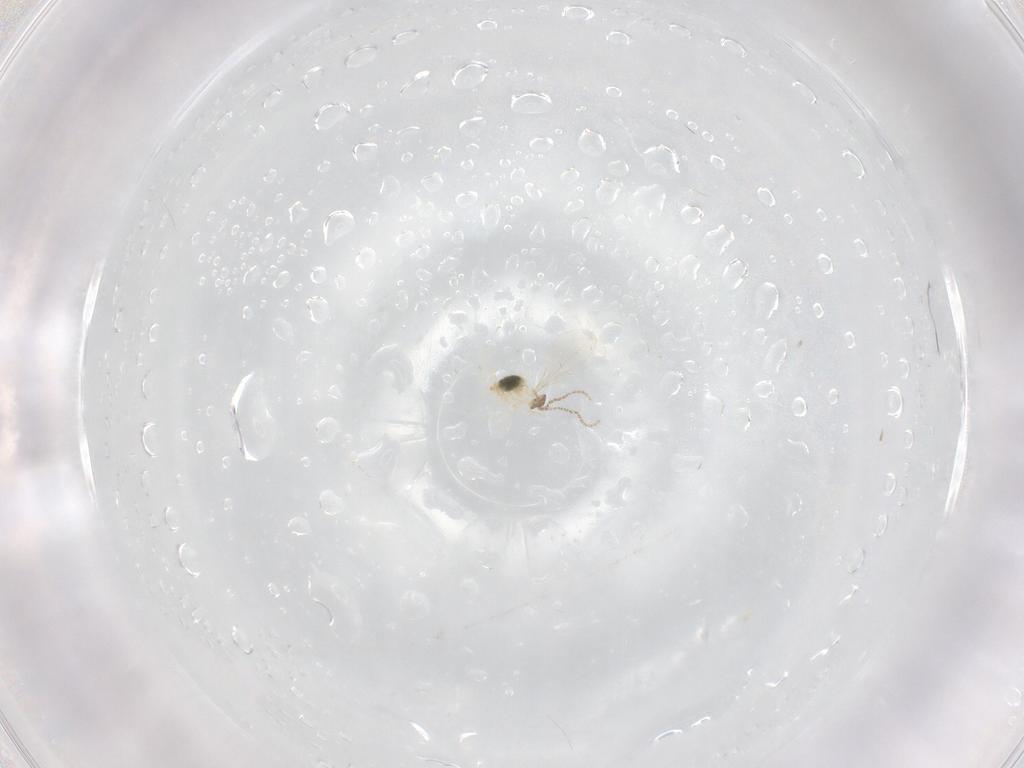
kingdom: Animalia
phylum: Arthropoda
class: Insecta
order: Diptera
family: Cecidomyiidae
